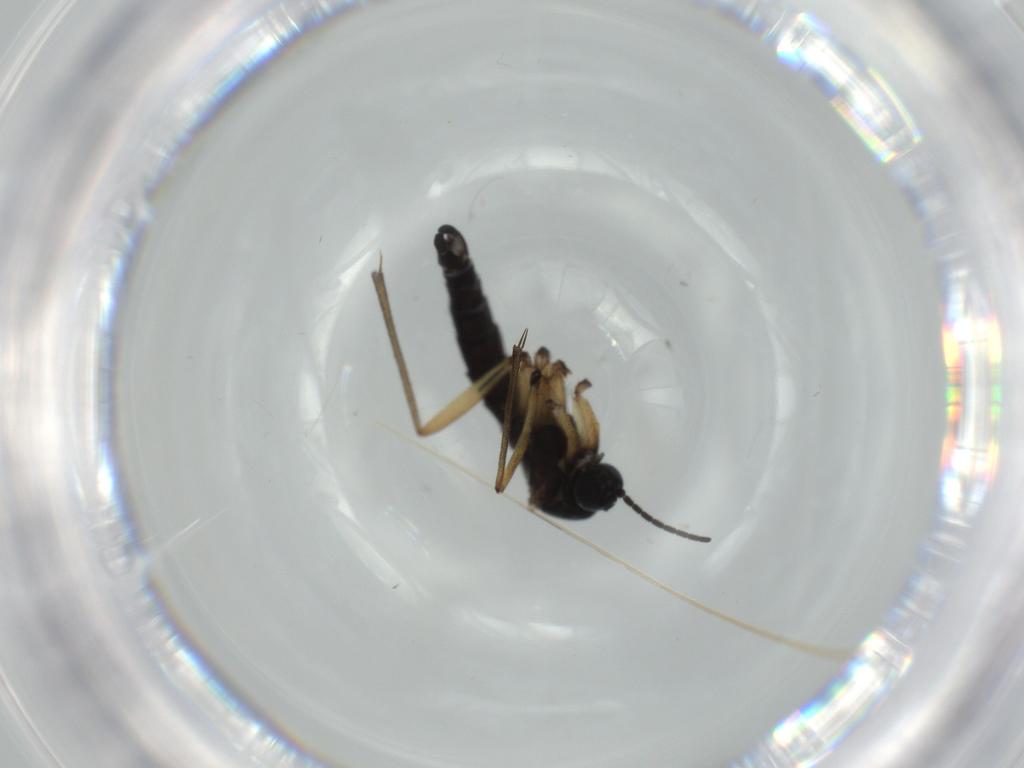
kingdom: Animalia
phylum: Arthropoda
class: Insecta
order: Diptera
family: Sciaridae
